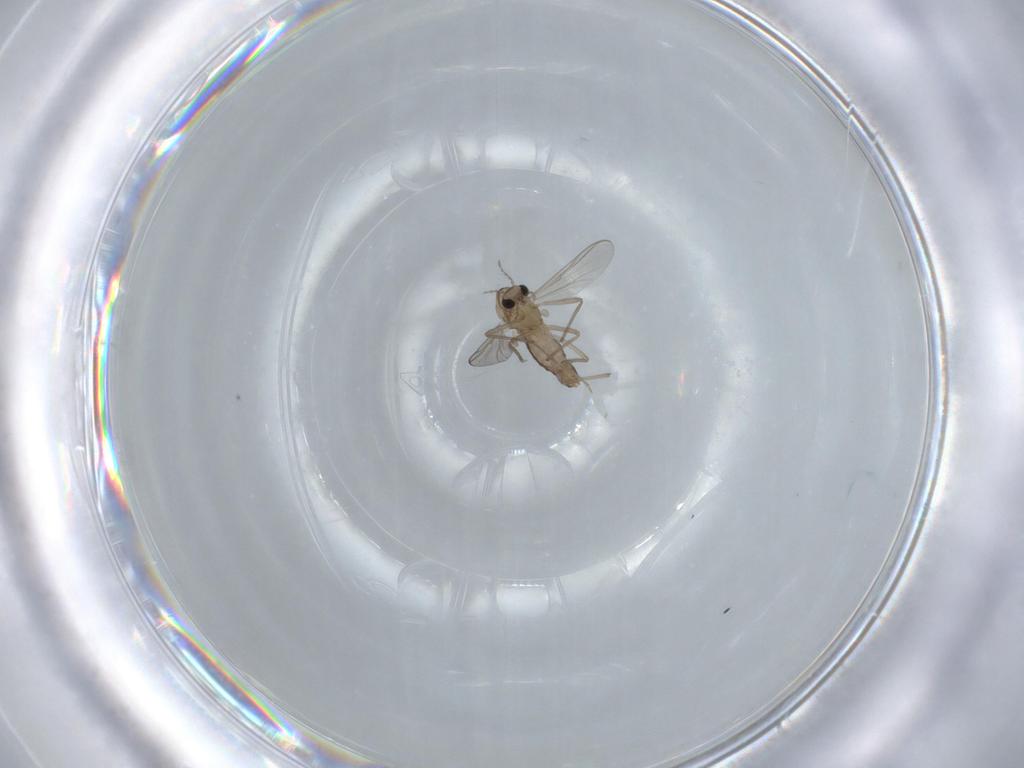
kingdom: Animalia
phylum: Arthropoda
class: Insecta
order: Diptera
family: Chironomidae
